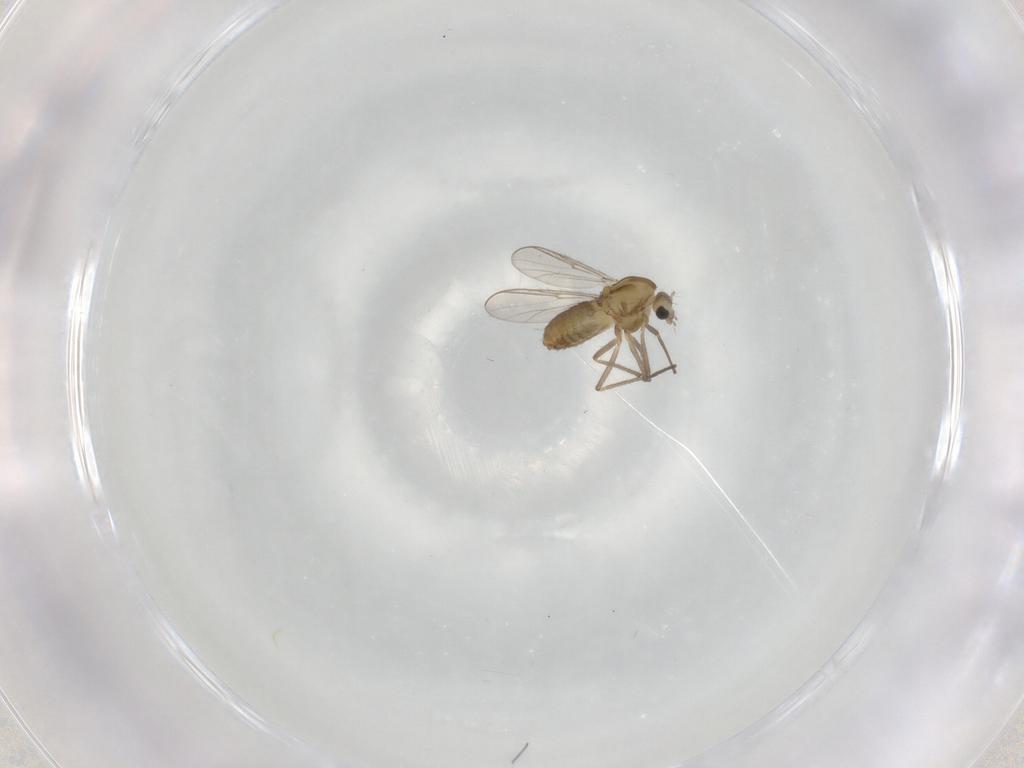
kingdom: Animalia
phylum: Arthropoda
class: Insecta
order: Diptera
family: Chironomidae
